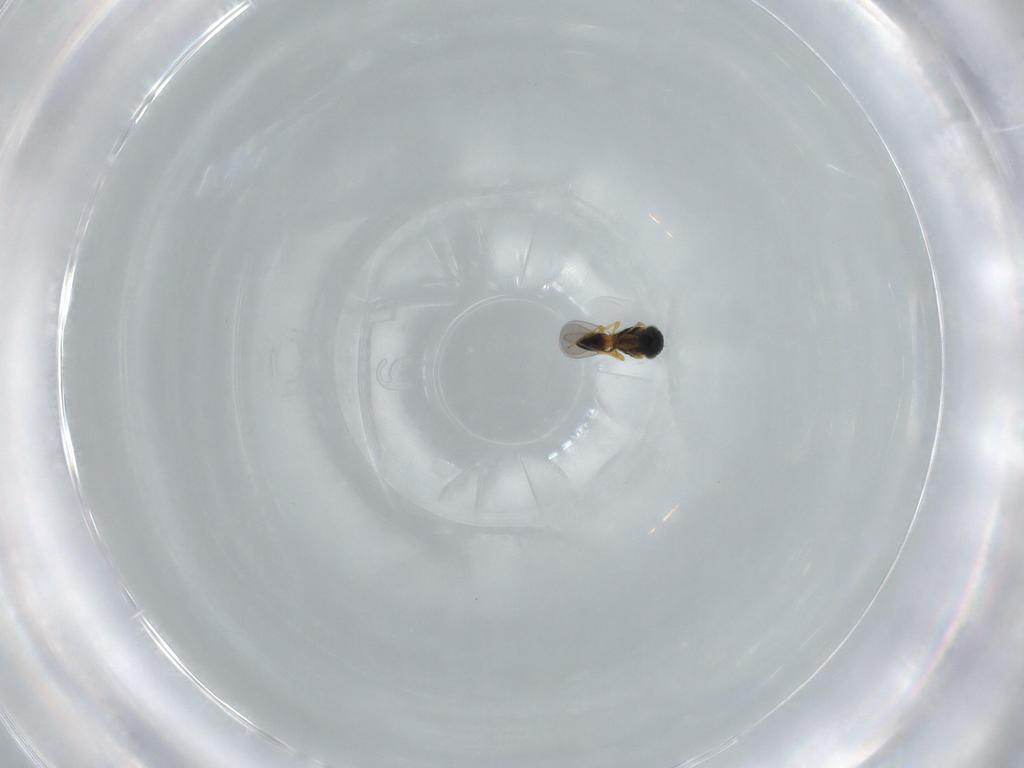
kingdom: Animalia
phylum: Arthropoda
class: Insecta
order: Hymenoptera
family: Platygastridae
